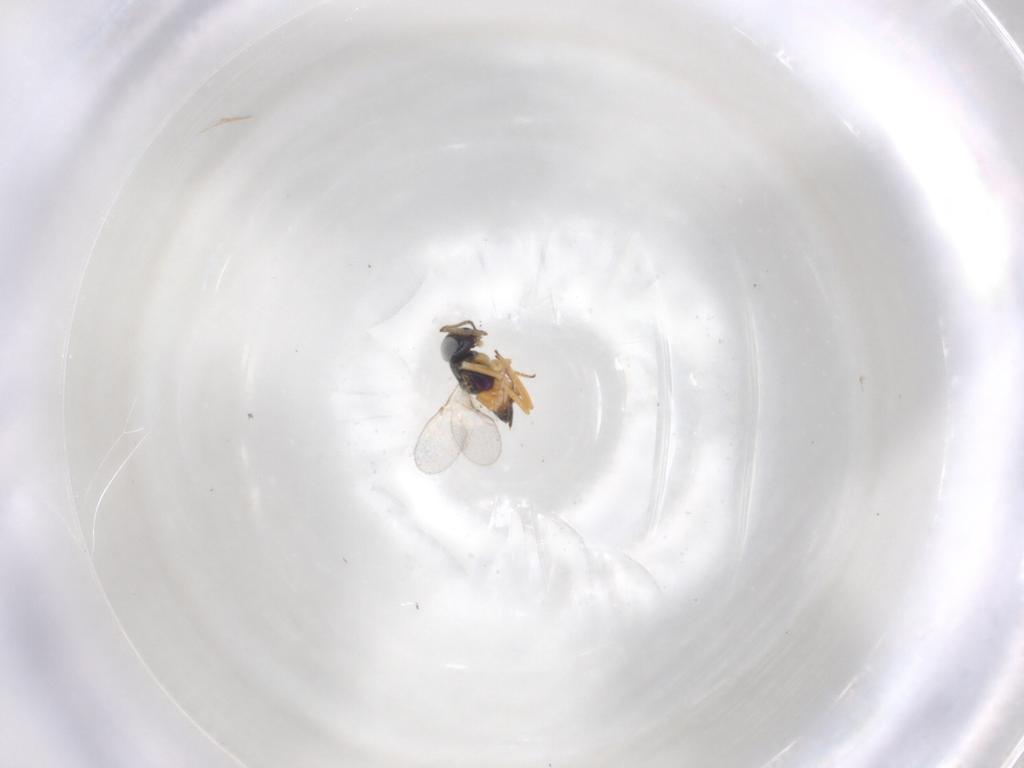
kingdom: Animalia
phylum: Arthropoda
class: Insecta
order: Hymenoptera
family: Encyrtidae
